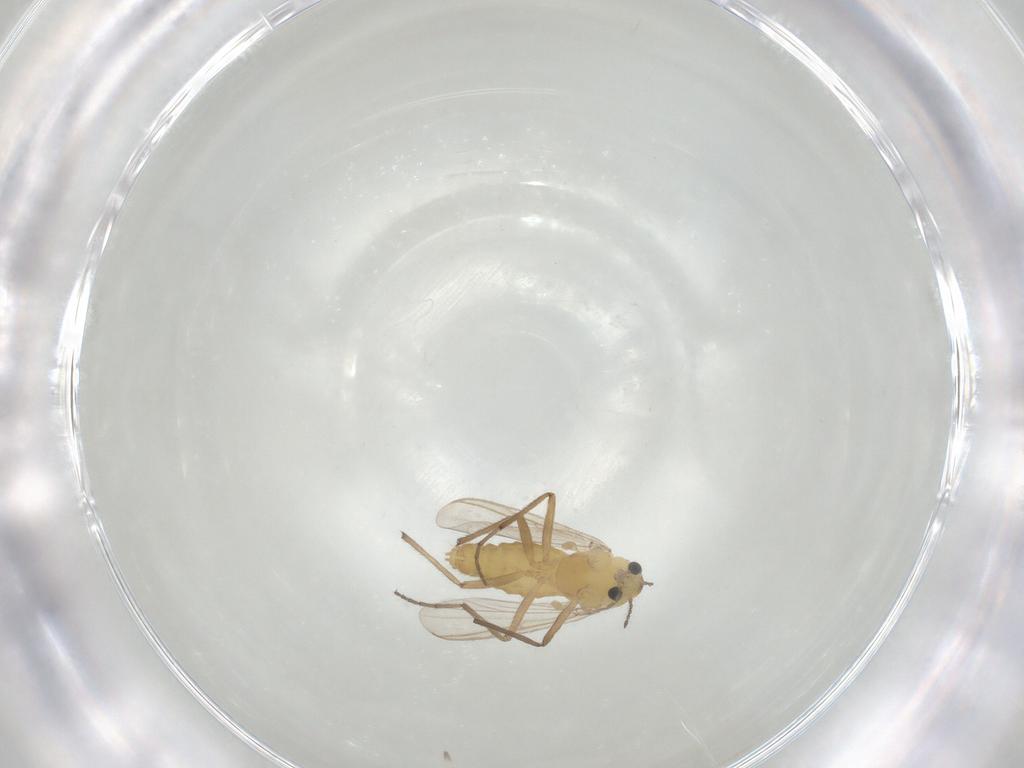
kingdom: Animalia
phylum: Arthropoda
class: Insecta
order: Diptera
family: Chironomidae
